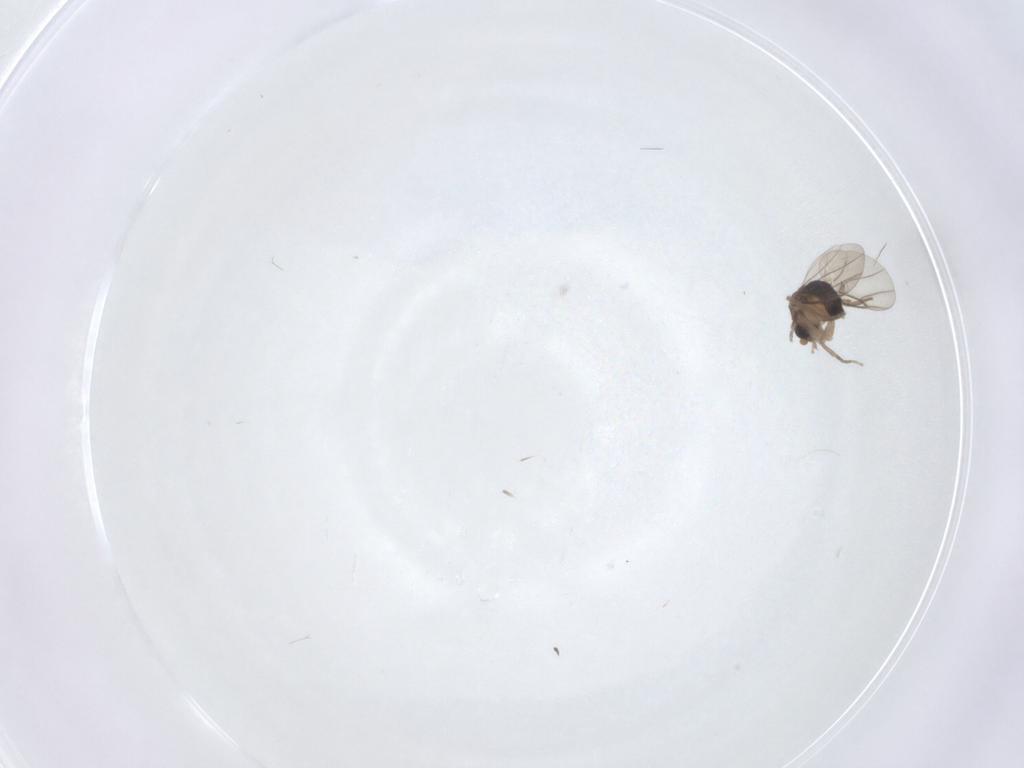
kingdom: Animalia
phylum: Arthropoda
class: Insecta
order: Diptera
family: Phoridae
